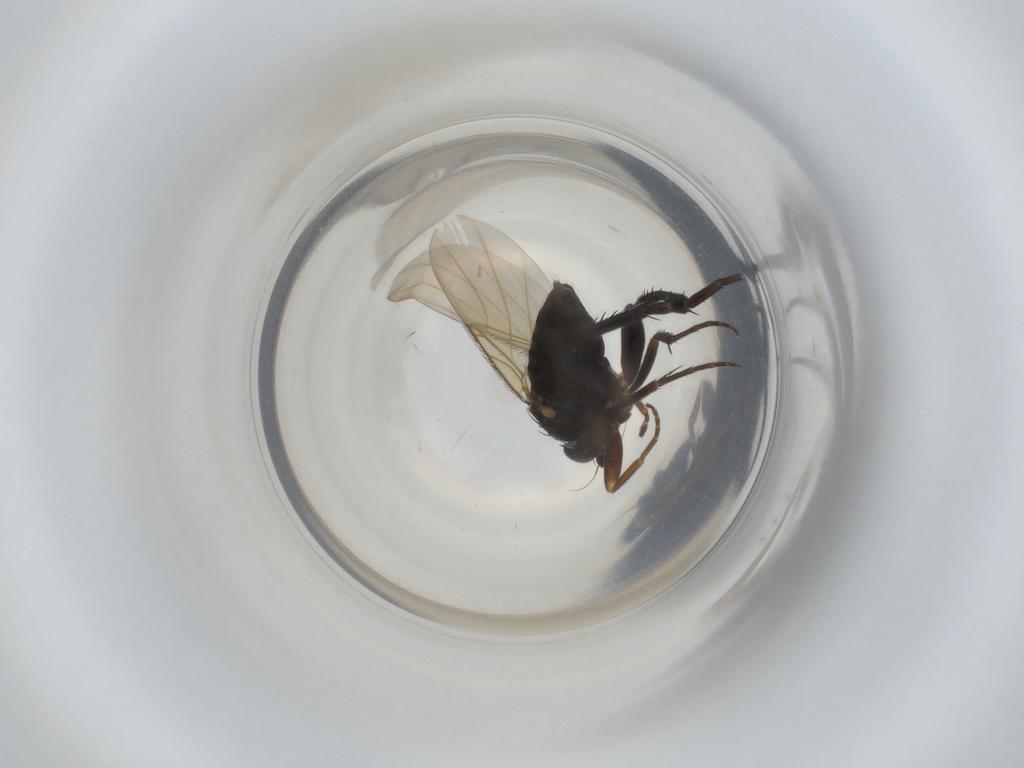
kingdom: Animalia
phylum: Arthropoda
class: Insecta
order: Diptera
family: Phoridae
